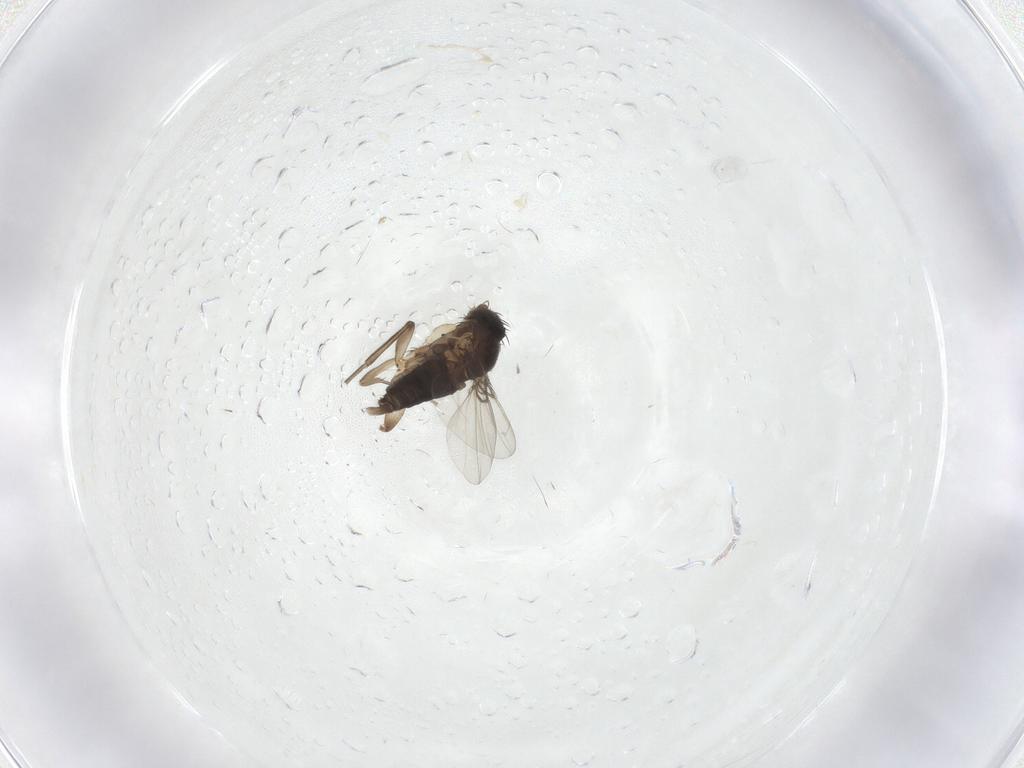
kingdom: Animalia
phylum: Arthropoda
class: Insecta
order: Diptera
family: Phoridae
